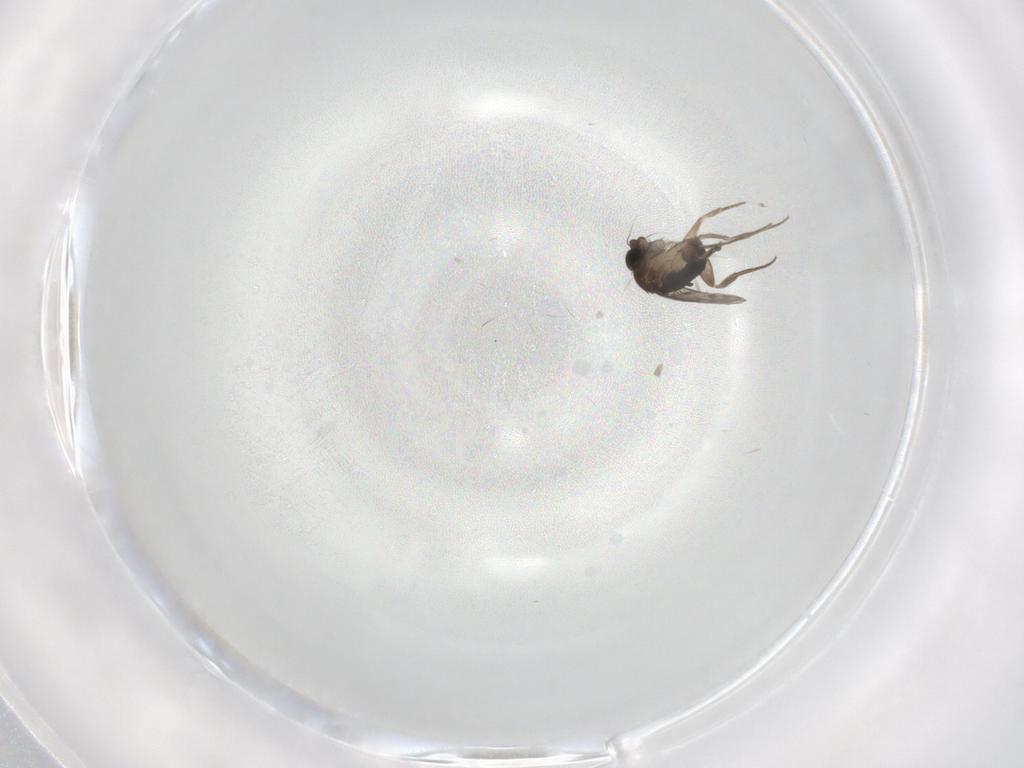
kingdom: Animalia
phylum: Arthropoda
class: Insecta
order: Diptera
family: Phoridae
